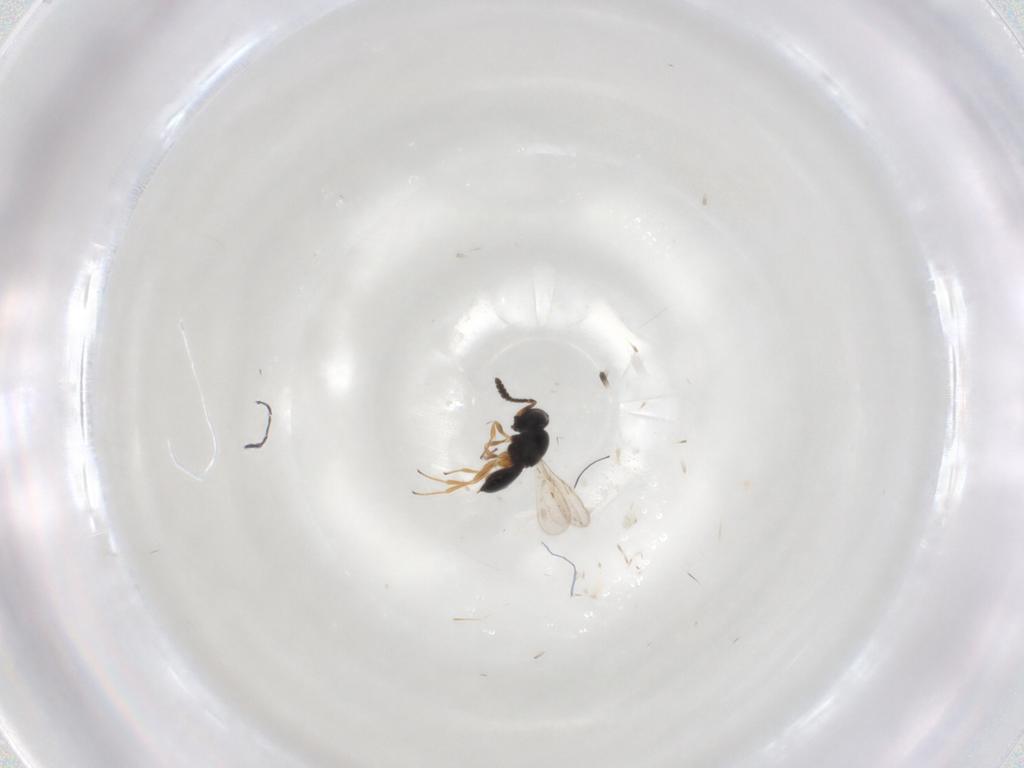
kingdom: Animalia
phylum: Arthropoda
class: Insecta
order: Hymenoptera
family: Scelionidae
